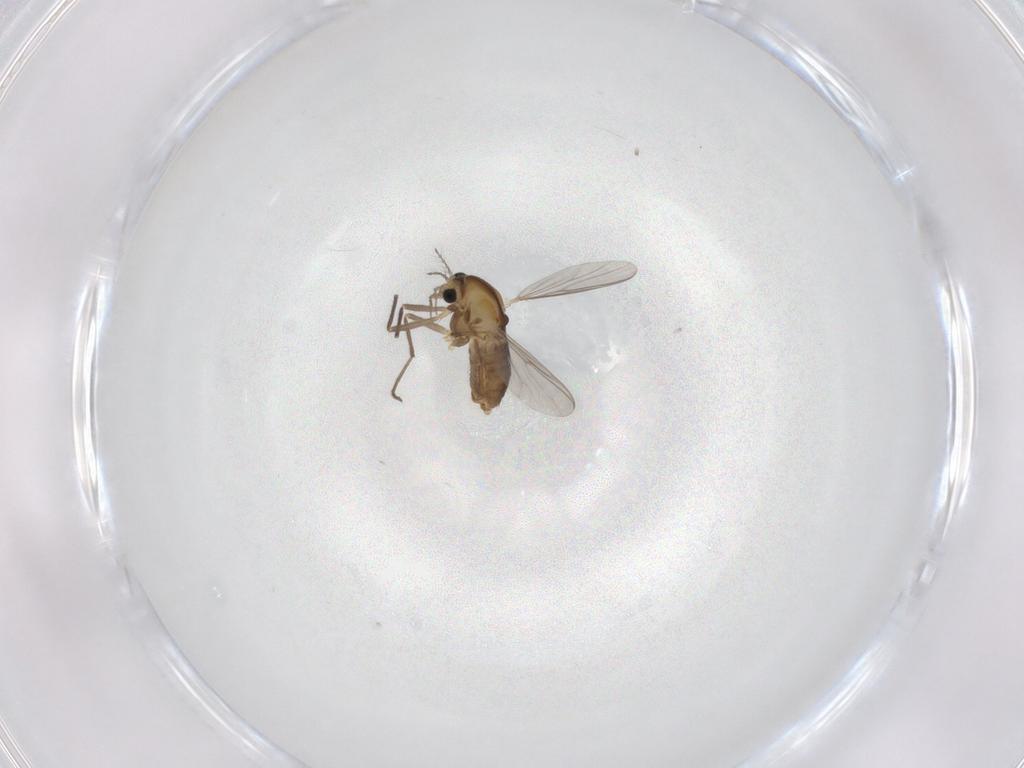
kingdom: Animalia
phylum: Arthropoda
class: Insecta
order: Diptera
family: Chironomidae
